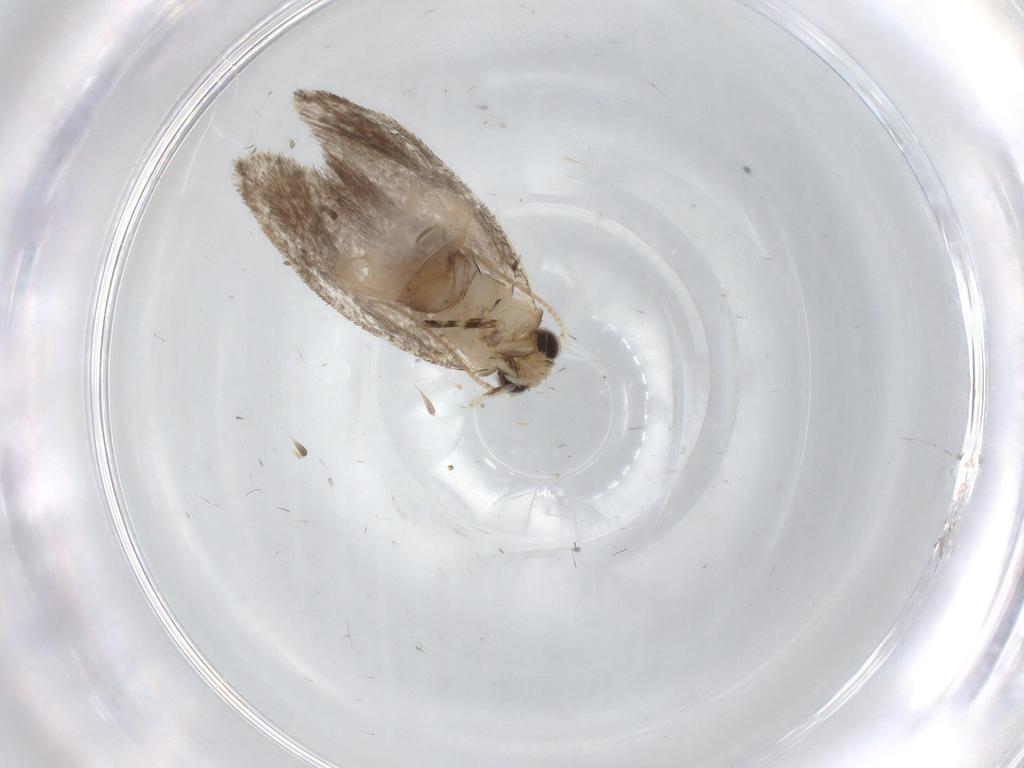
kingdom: Animalia
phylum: Arthropoda
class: Insecta
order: Lepidoptera
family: Tineidae
